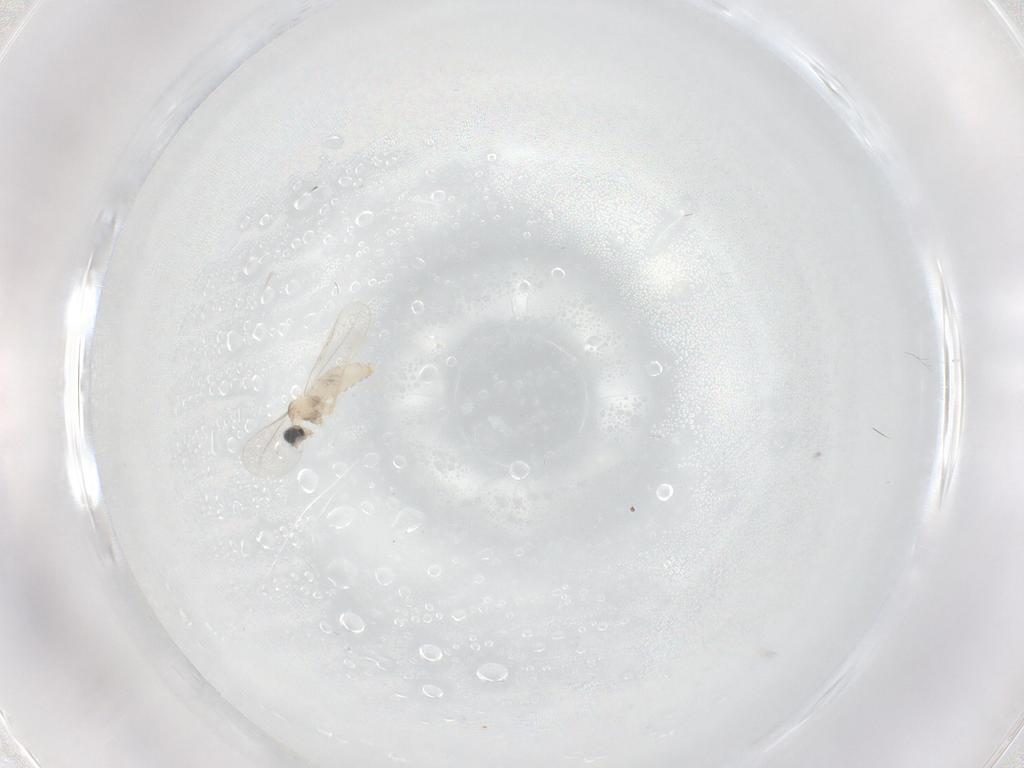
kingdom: Animalia
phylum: Arthropoda
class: Insecta
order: Diptera
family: Cecidomyiidae
